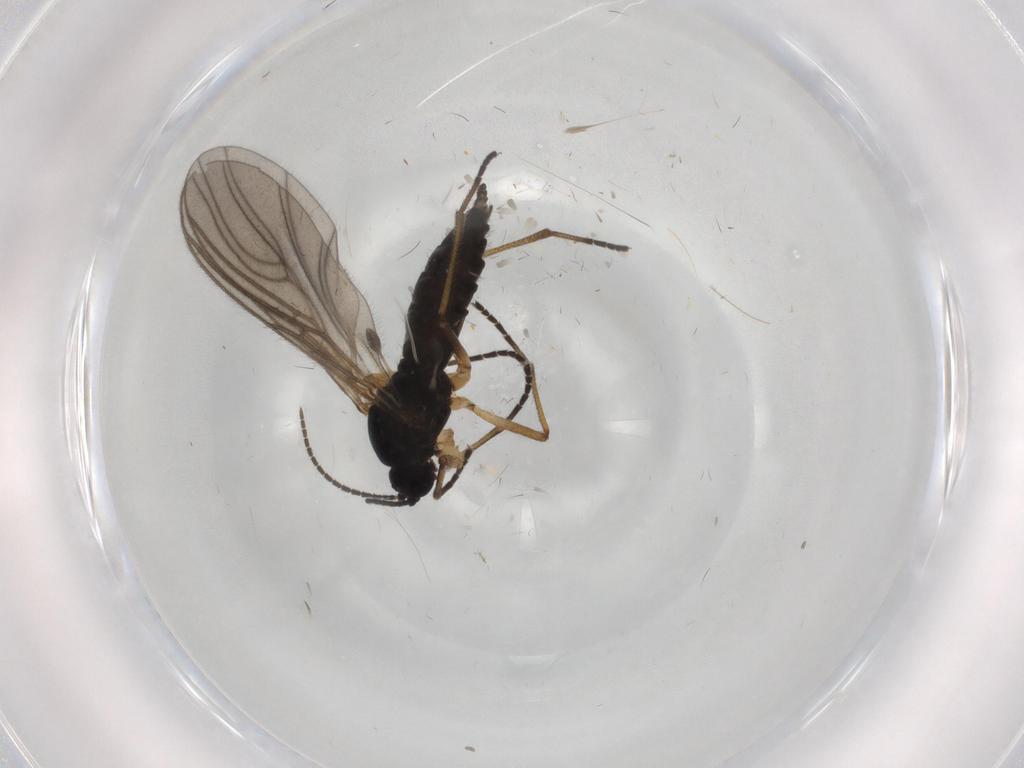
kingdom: Animalia
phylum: Arthropoda
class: Insecta
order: Diptera
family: Sciaridae
